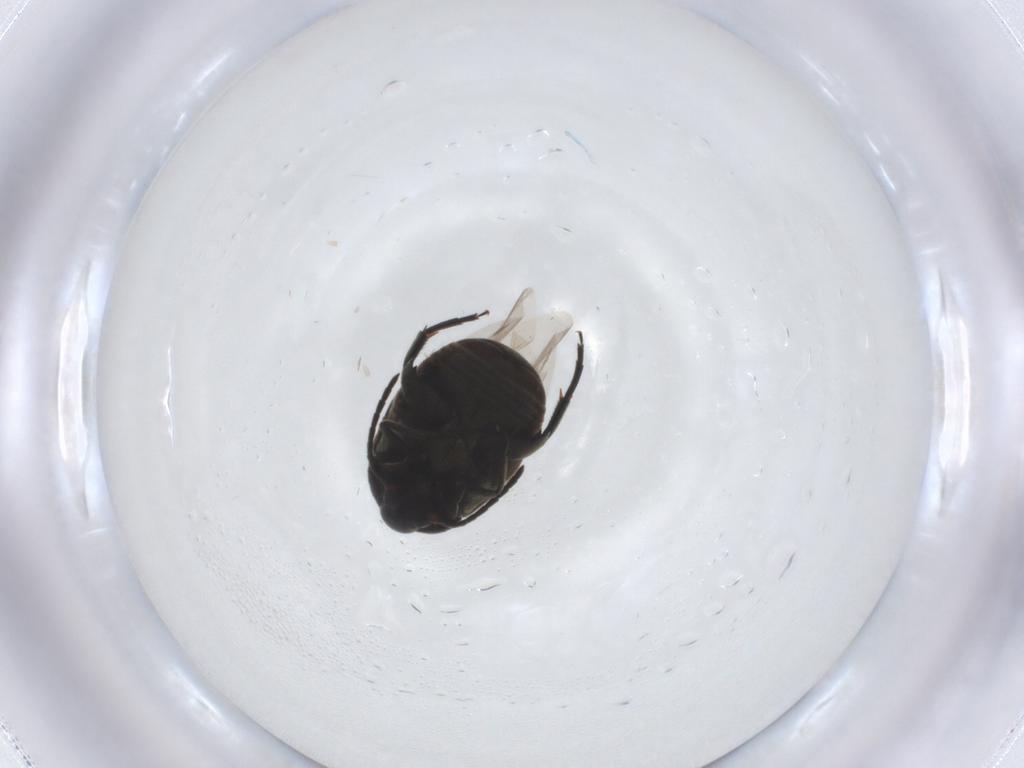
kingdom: Animalia
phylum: Arthropoda
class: Insecta
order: Coleoptera
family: Chrysomelidae
